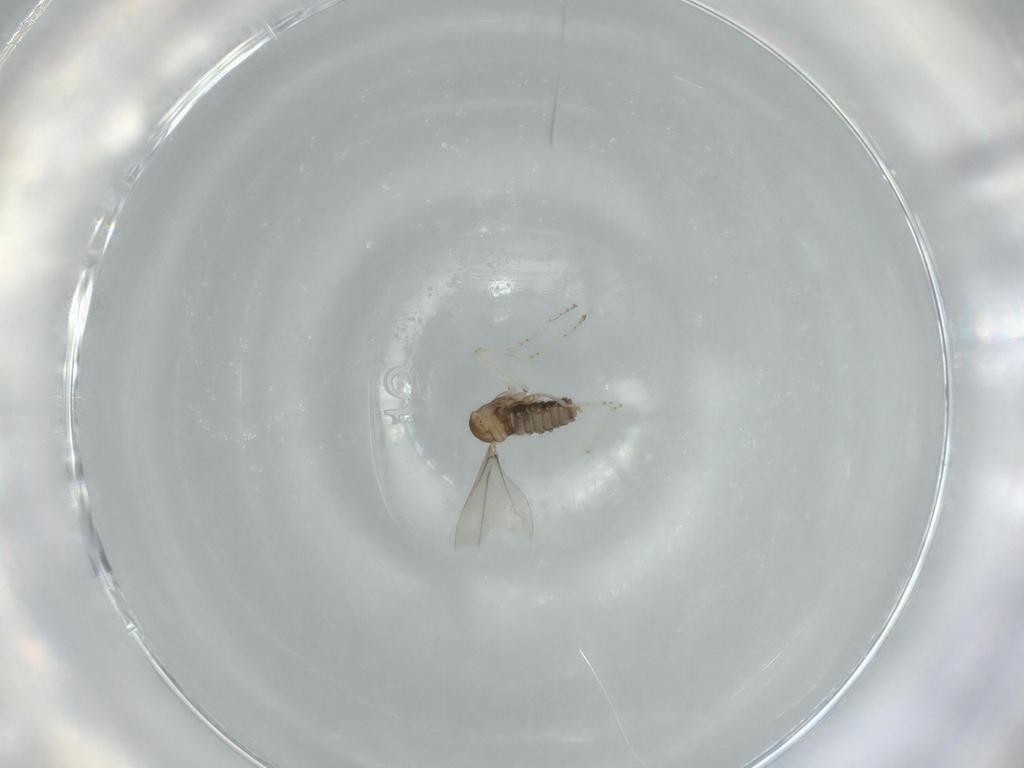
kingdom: Animalia
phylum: Arthropoda
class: Insecta
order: Diptera
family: Cecidomyiidae
